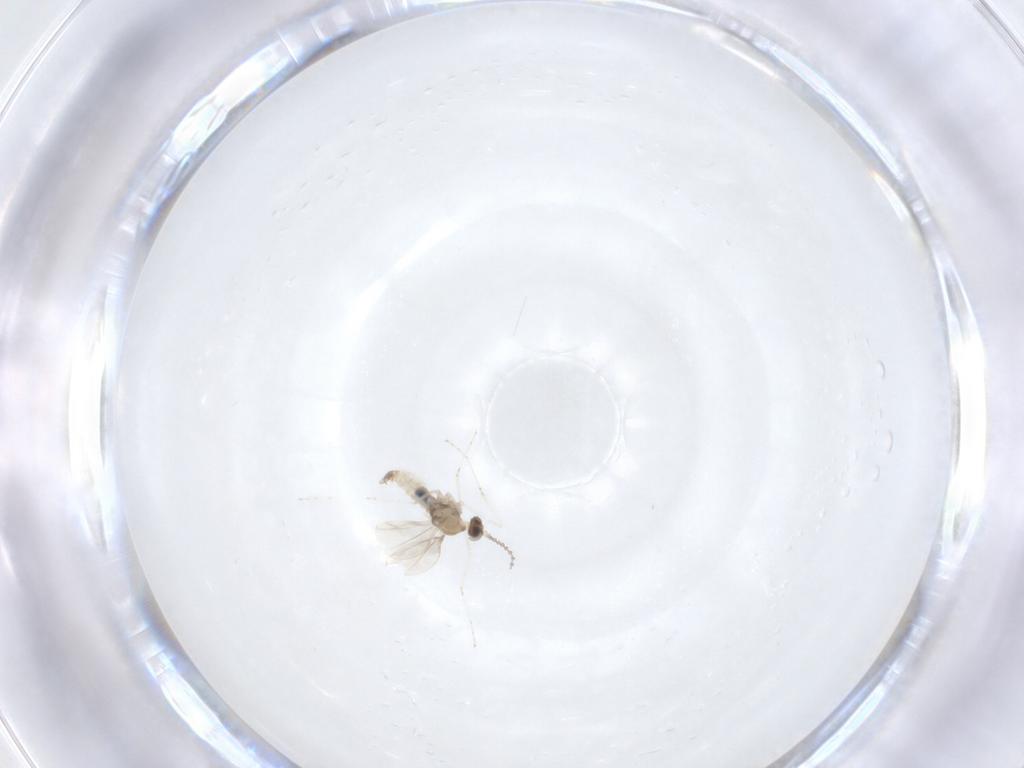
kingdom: Animalia
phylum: Arthropoda
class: Insecta
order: Diptera
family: Cecidomyiidae
